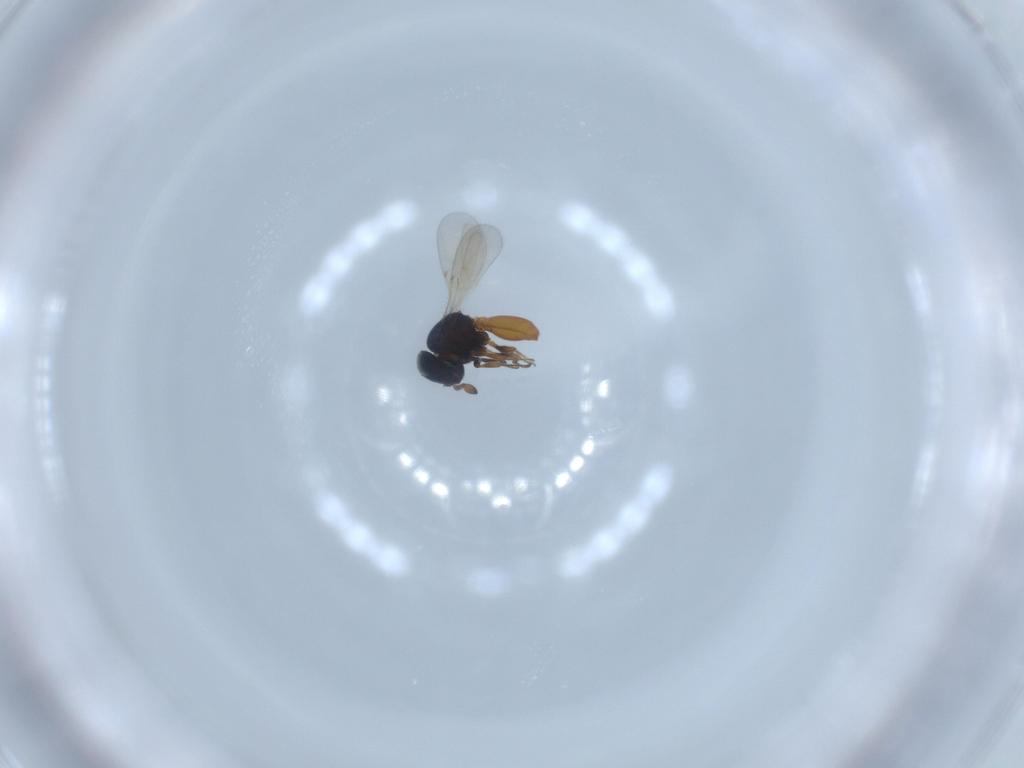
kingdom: Animalia
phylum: Arthropoda
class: Insecta
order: Hymenoptera
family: Scelionidae
